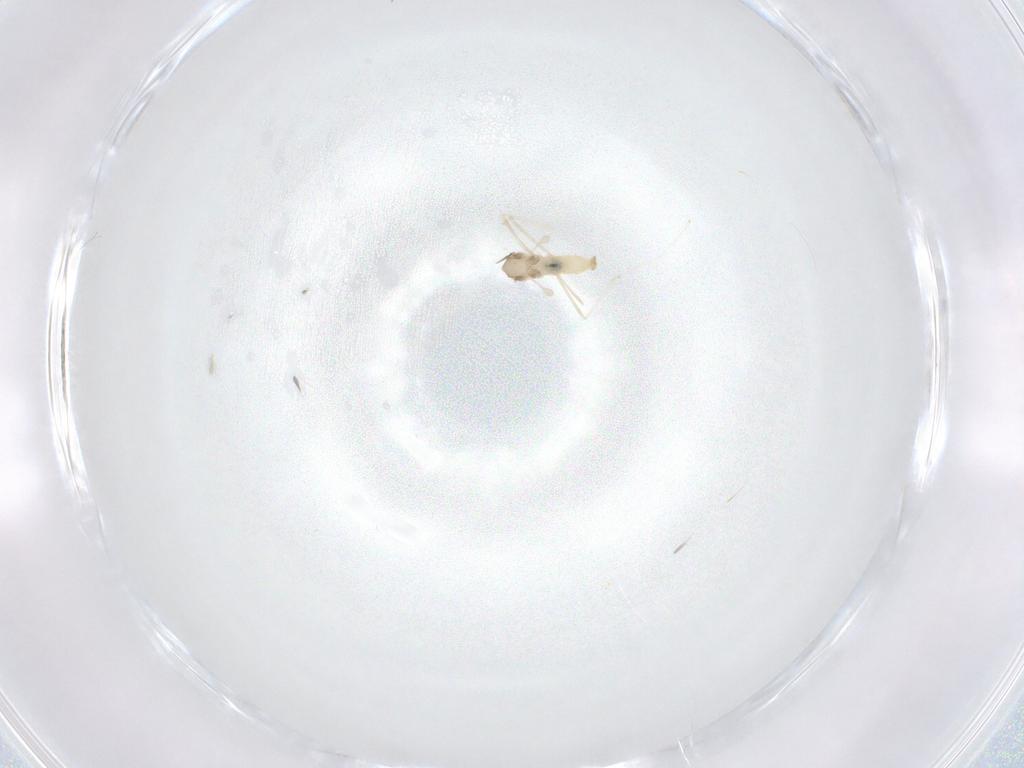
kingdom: Animalia
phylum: Arthropoda
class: Insecta
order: Diptera
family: Cecidomyiidae
